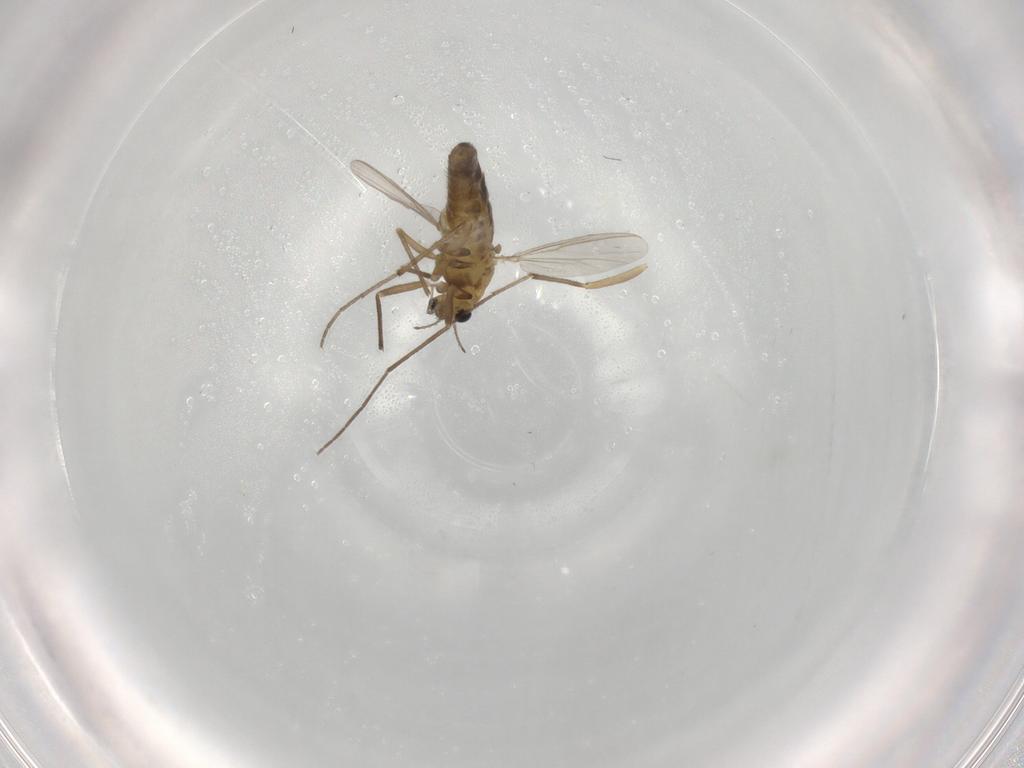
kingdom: Animalia
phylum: Arthropoda
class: Insecta
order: Diptera
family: Chironomidae
